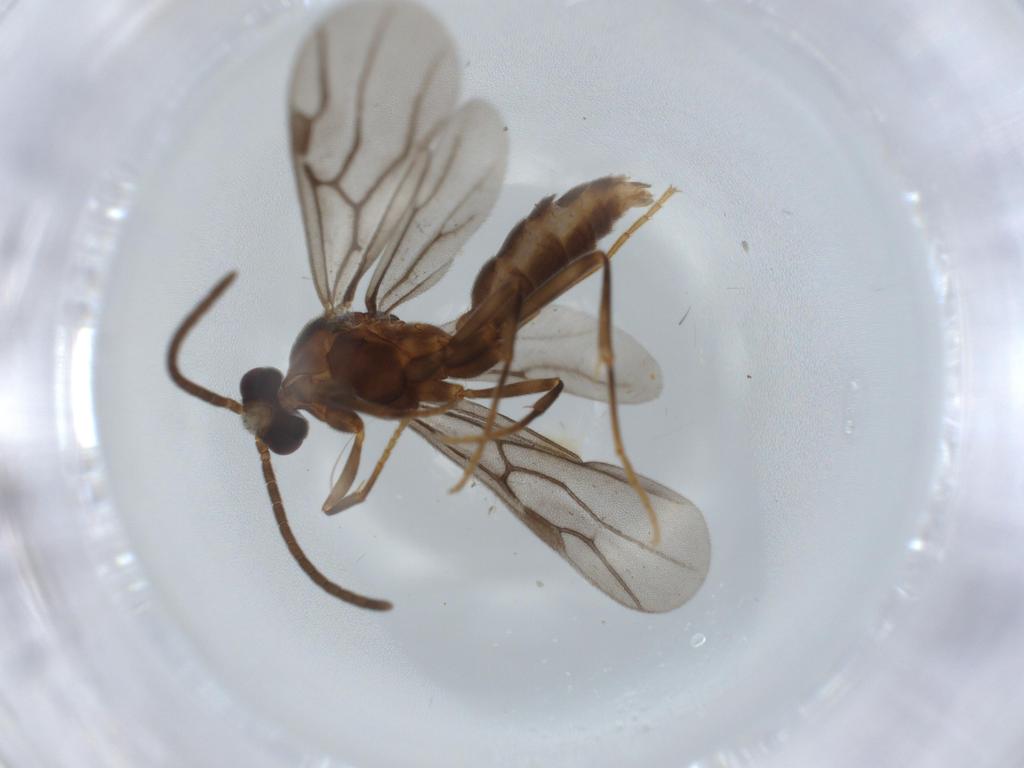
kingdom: Animalia
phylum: Arthropoda
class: Insecta
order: Hymenoptera
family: Formicidae
